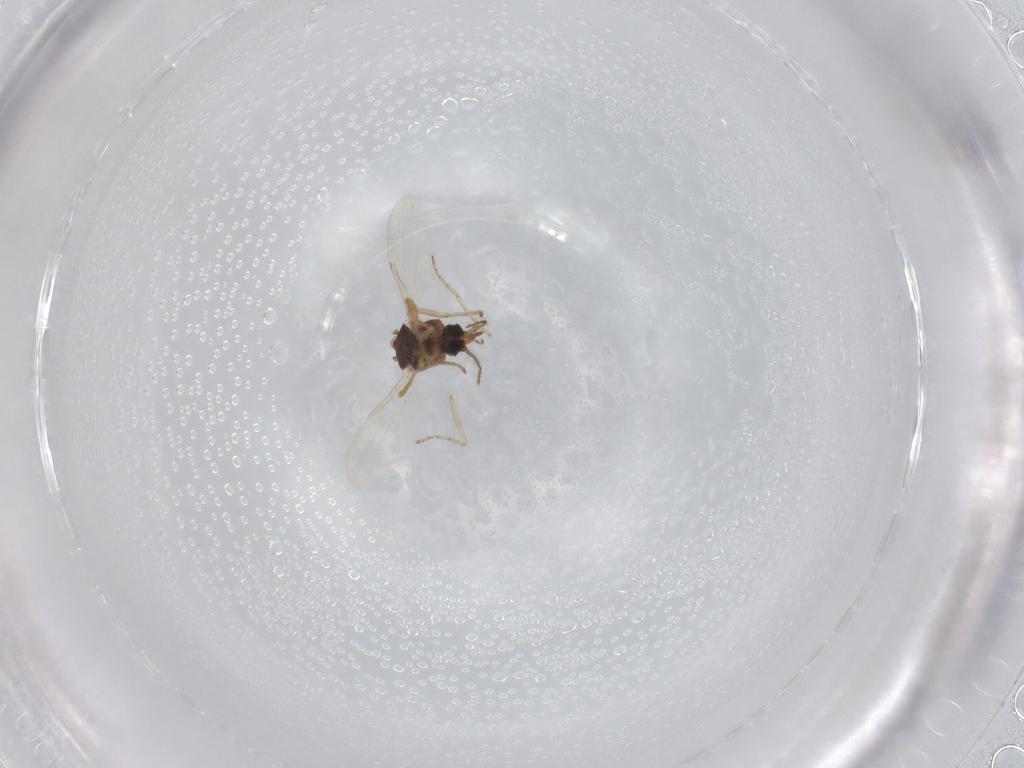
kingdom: Animalia
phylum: Arthropoda
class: Insecta
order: Diptera
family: Ceratopogonidae
